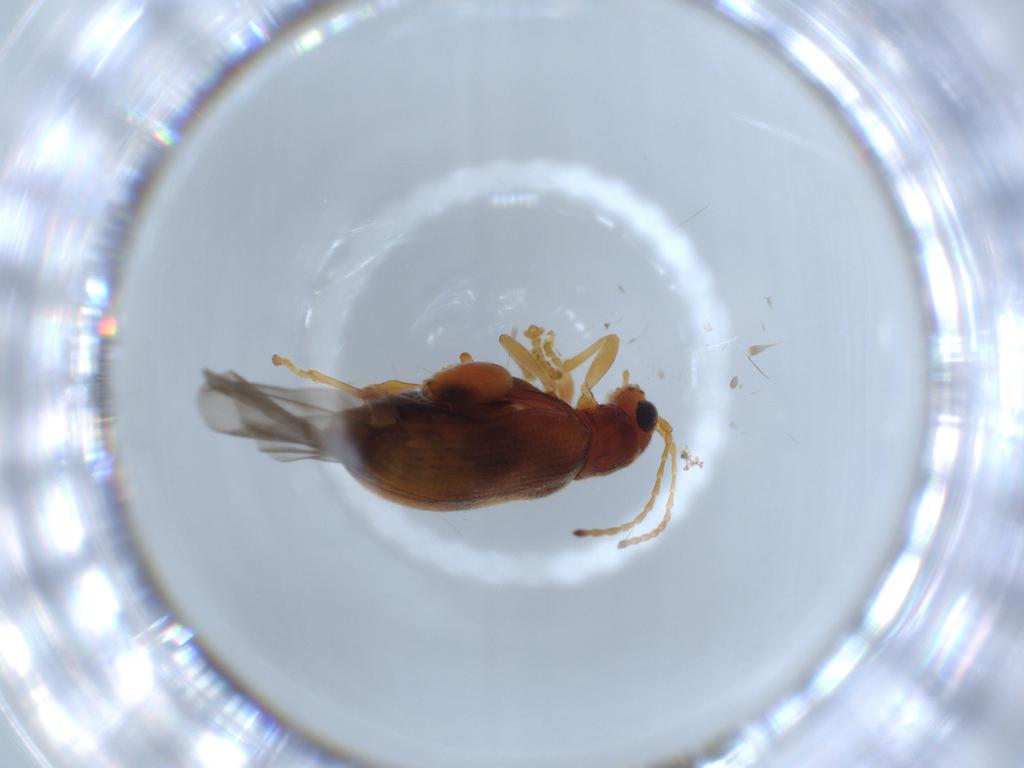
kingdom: Animalia
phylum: Arthropoda
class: Insecta
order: Coleoptera
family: Chrysomelidae
